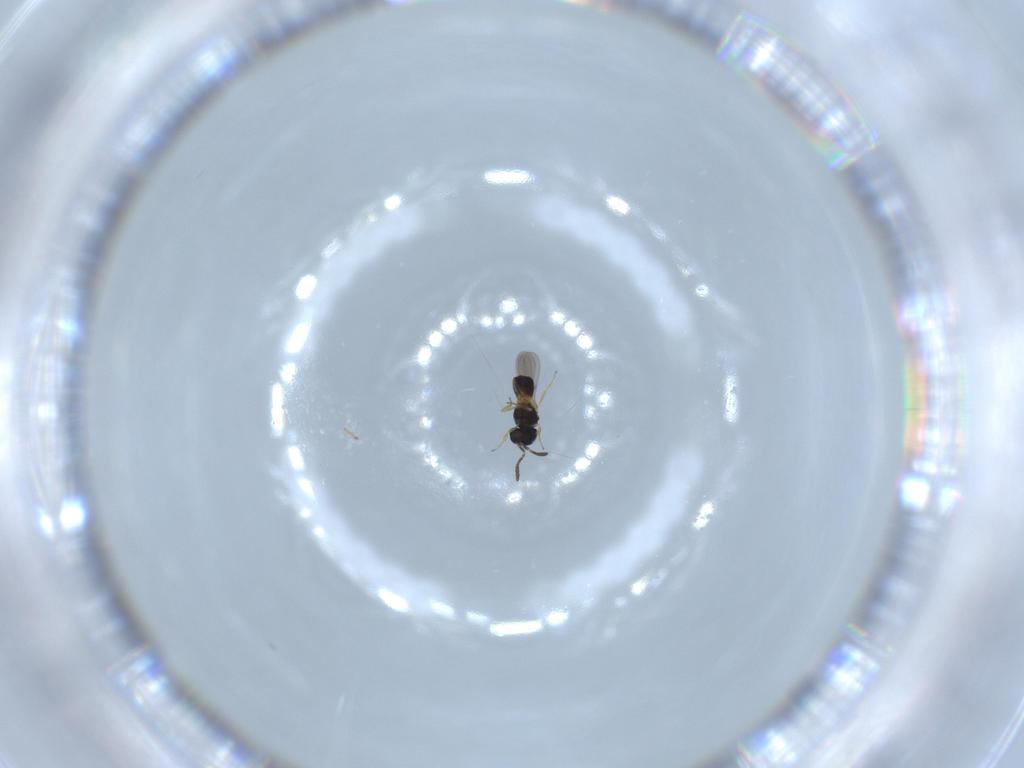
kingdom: Animalia
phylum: Arthropoda
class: Insecta
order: Hymenoptera
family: Scelionidae
